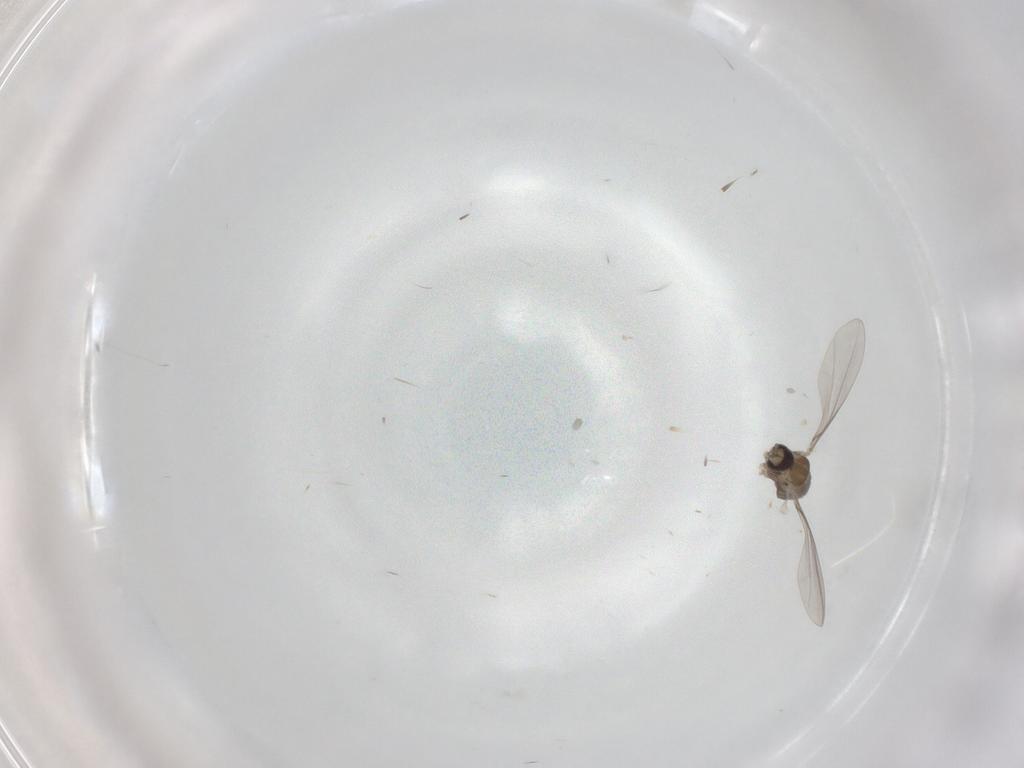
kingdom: Animalia
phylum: Arthropoda
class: Insecta
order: Diptera
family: Cecidomyiidae
